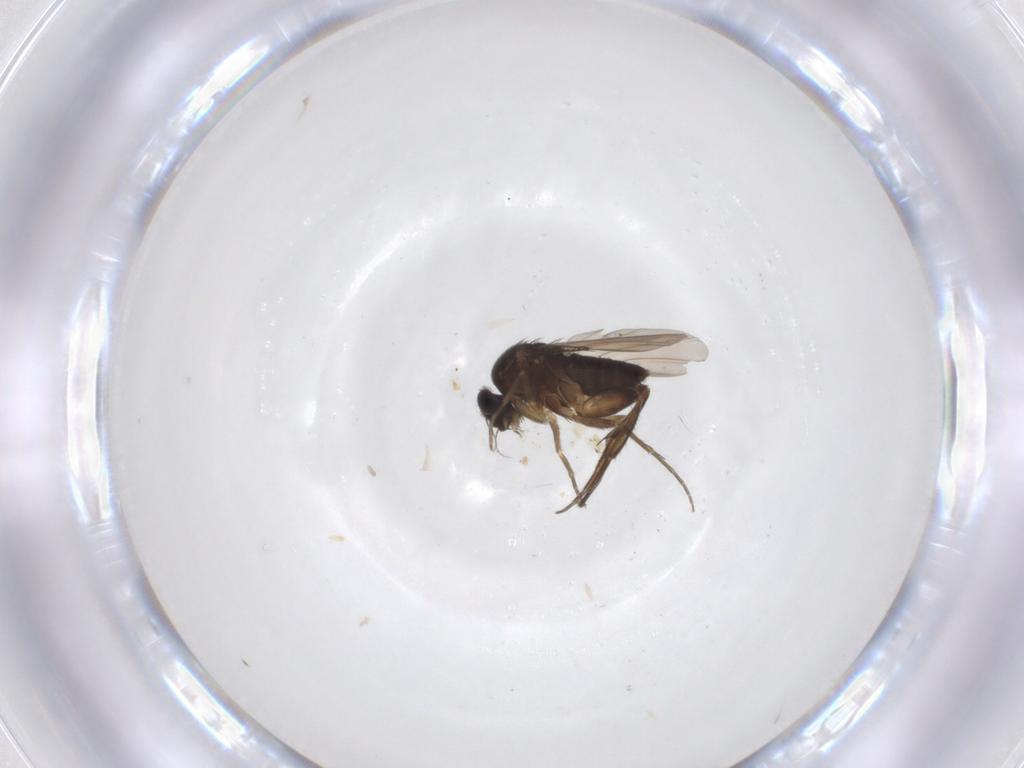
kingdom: Animalia
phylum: Arthropoda
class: Insecta
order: Diptera
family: Phoridae
